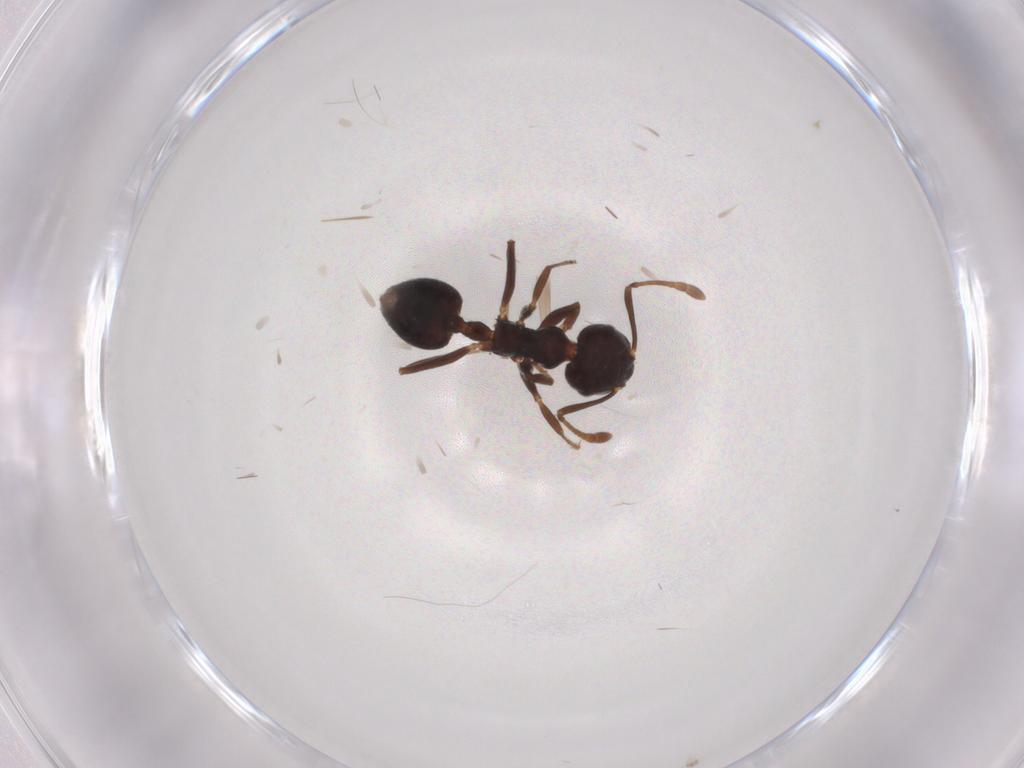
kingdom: Animalia
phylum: Arthropoda
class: Insecta
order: Hymenoptera
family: Formicidae
